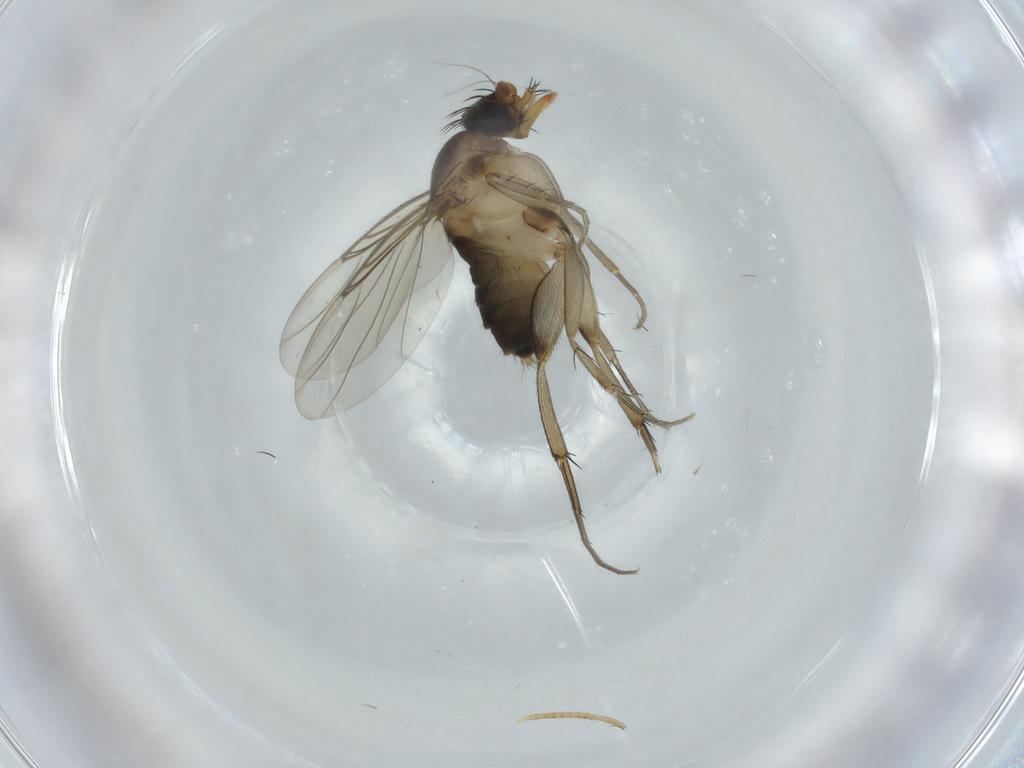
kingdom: Animalia
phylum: Arthropoda
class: Insecta
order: Diptera
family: Phoridae
